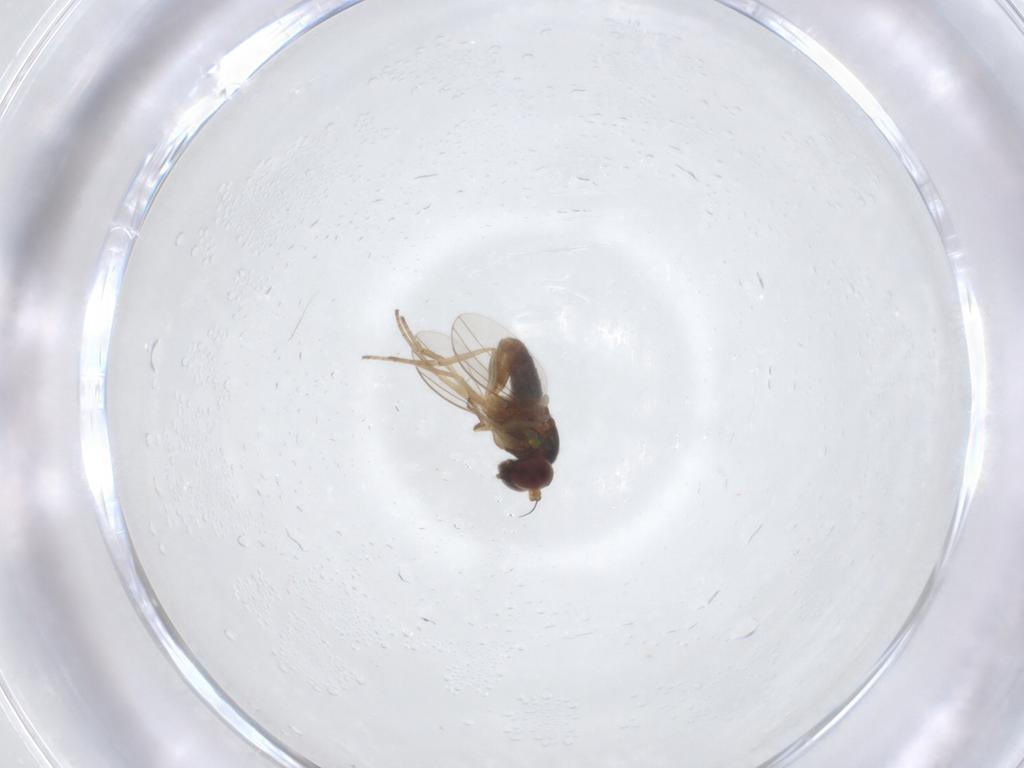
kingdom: Animalia
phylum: Arthropoda
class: Insecta
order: Diptera
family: Dolichopodidae
